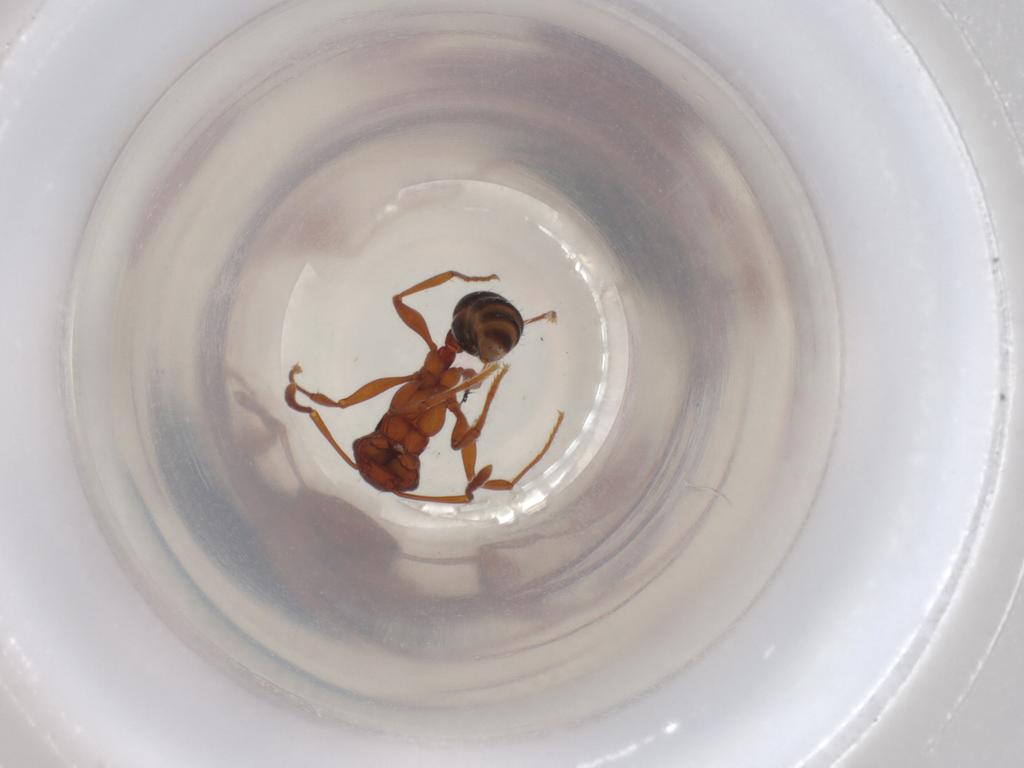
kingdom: Animalia
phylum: Arthropoda
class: Insecta
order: Hymenoptera
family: Formicidae
